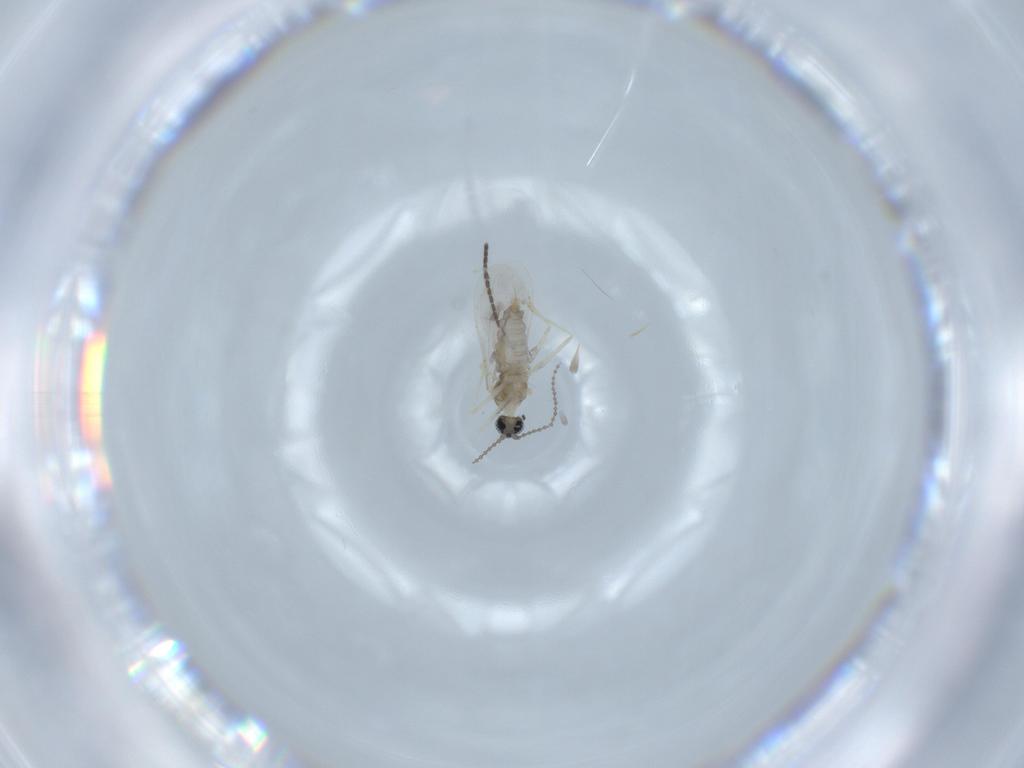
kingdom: Animalia
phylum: Arthropoda
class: Insecta
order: Diptera
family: Cecidomyiidae
